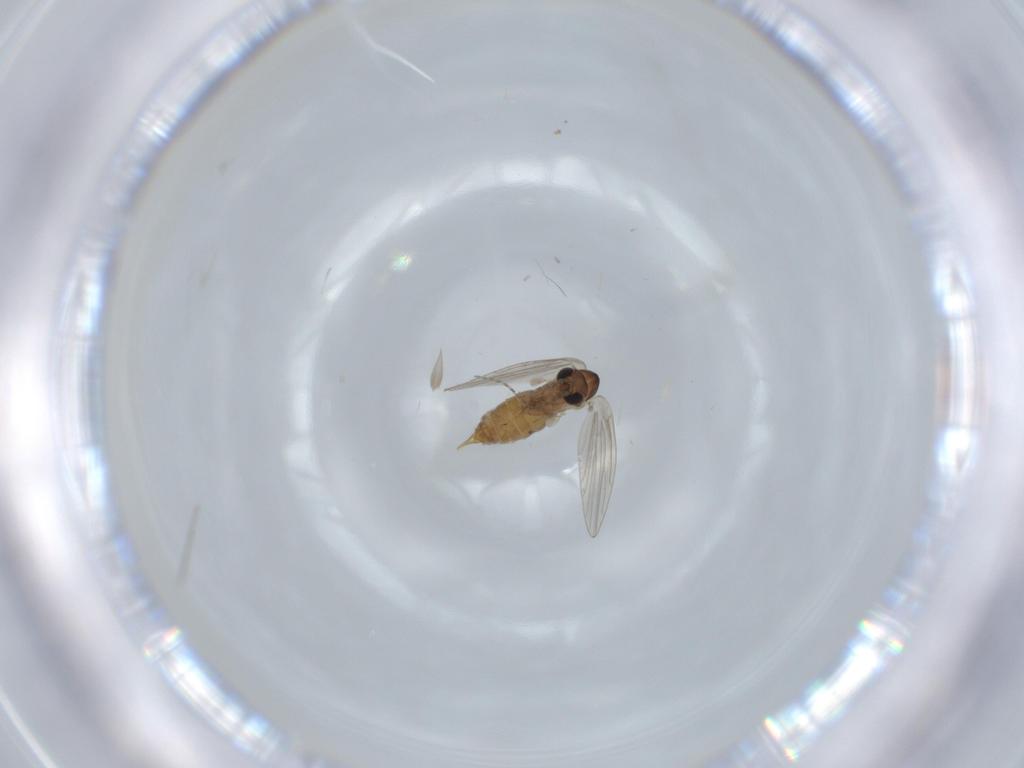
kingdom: Animalia
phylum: Arthropoda
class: Insecta
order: Diptera
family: Psychodidae
